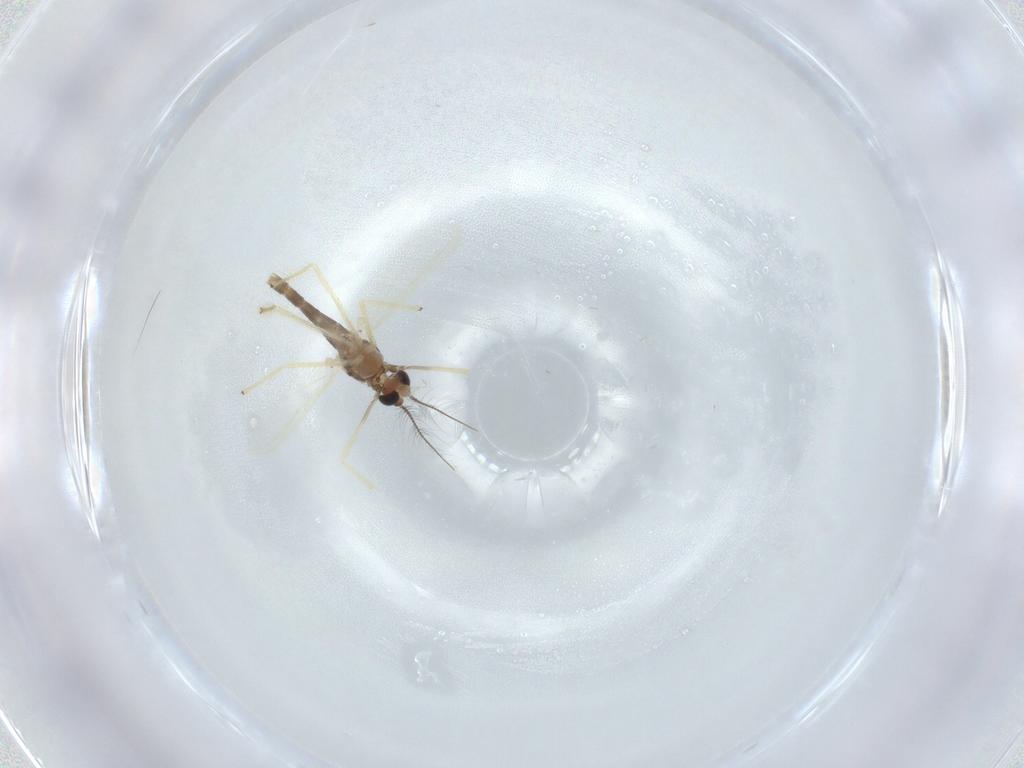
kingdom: Animalia
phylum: Arthropoda
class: Insecta
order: Diptera
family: Chironomidae
